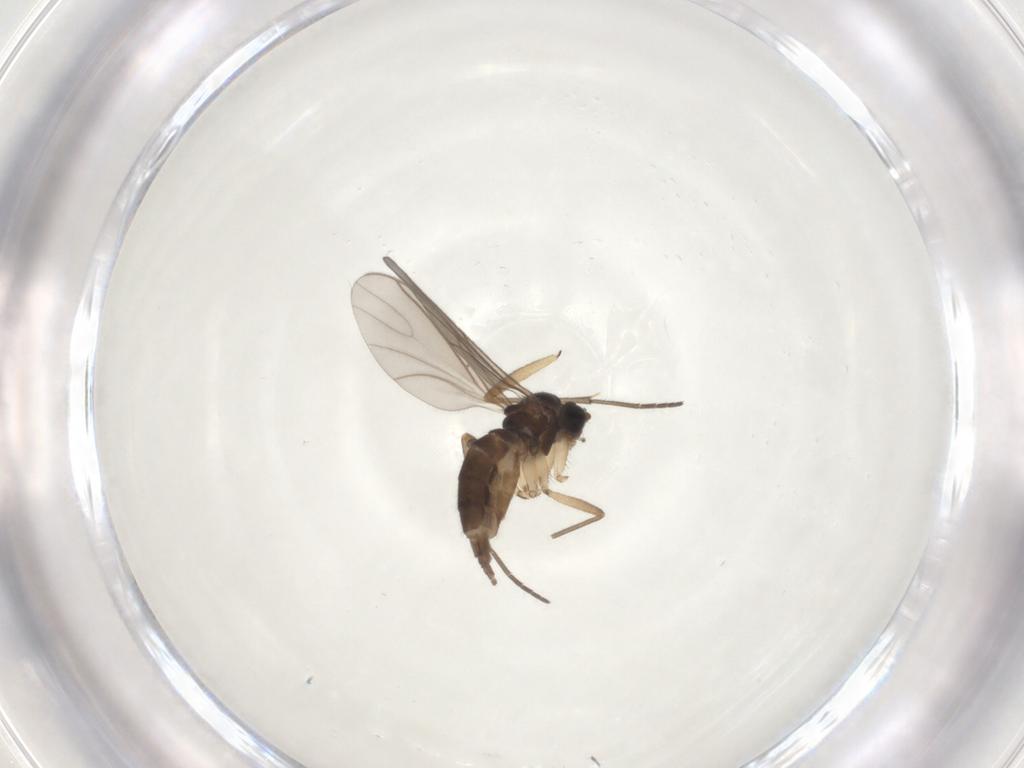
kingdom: Animalia
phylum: Arthropoda
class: Insecta
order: Diptera
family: Sciaridae
